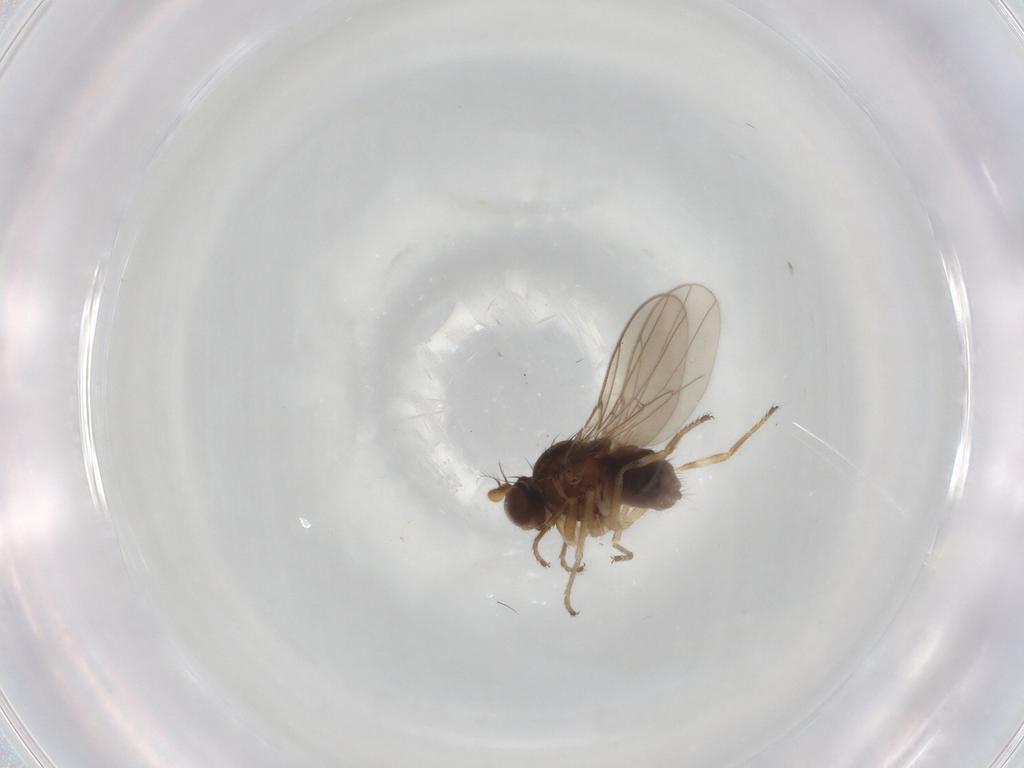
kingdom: Animalia
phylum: Arthropoda
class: Insecta
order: Diptera
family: Ephydridae
